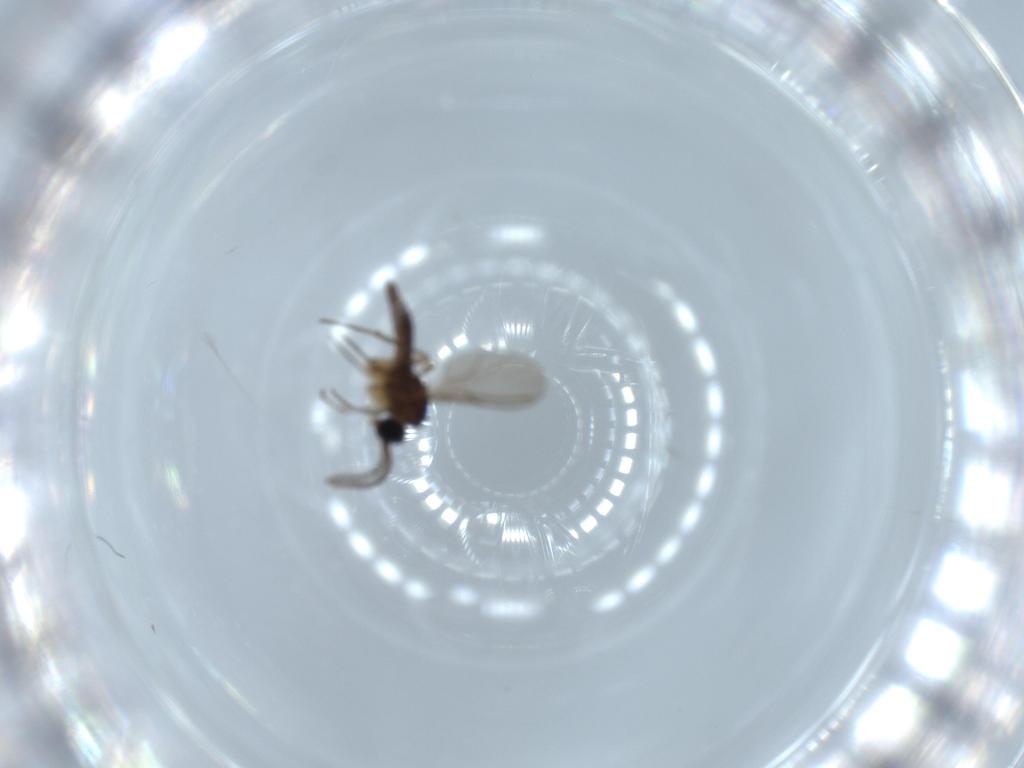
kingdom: Animalia
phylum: Arthropoda
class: Insecta
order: Diptera
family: Sciaridae
